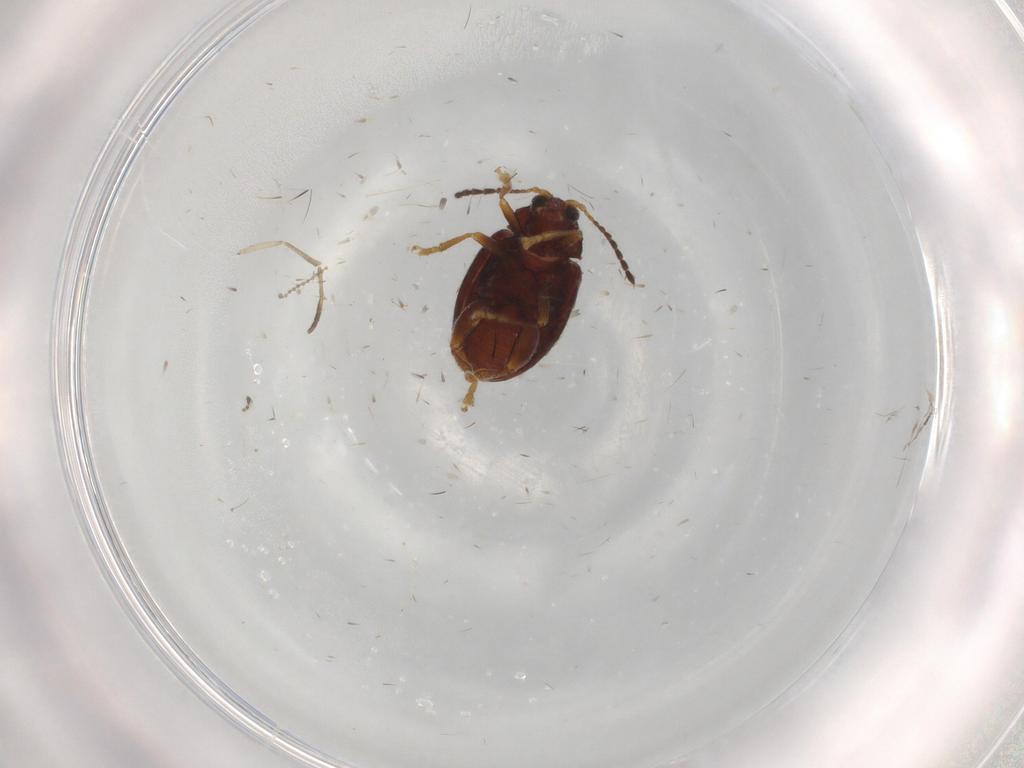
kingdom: Animalia
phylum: Arthropoda
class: Insecta
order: Coleoptera
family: Chrysomelidae
